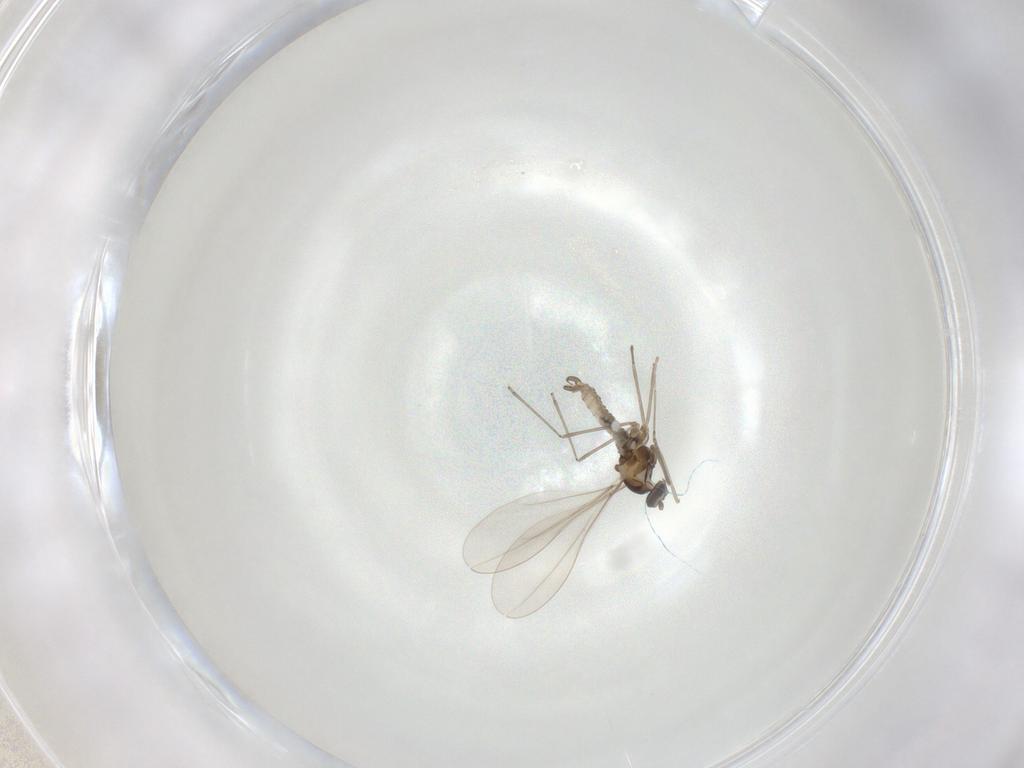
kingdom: Animalia
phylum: Arthropoda
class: Insecta
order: Diptera
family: Cecidomyiidae
